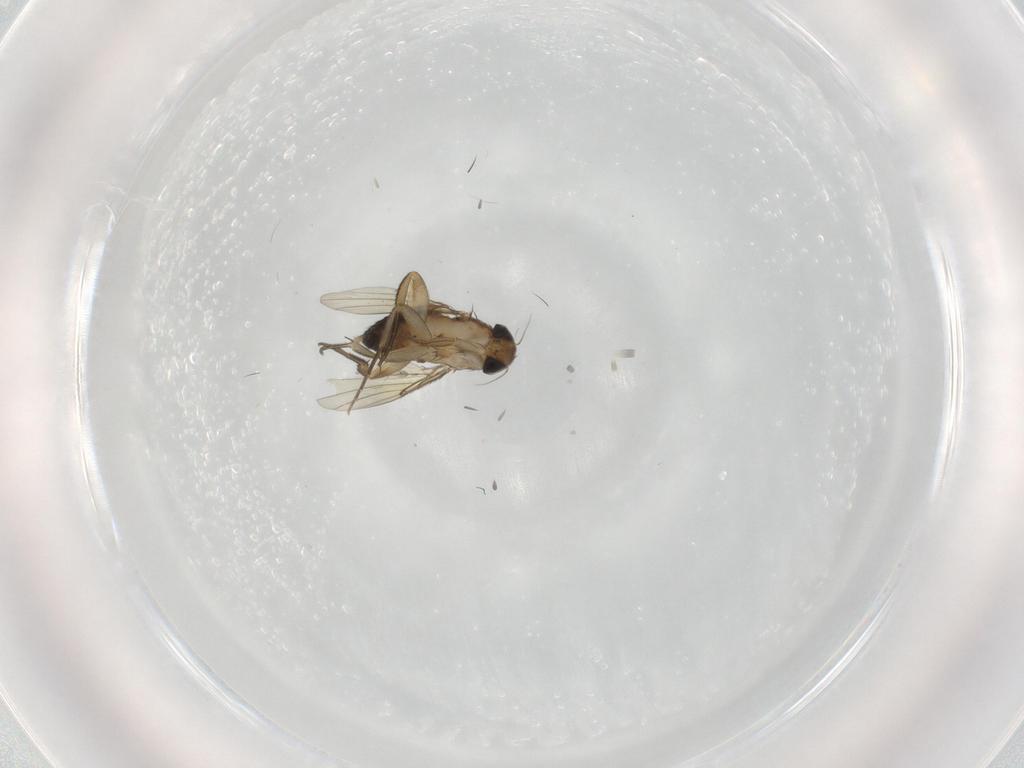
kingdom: Animalia
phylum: Arthropoda
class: Insecta
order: Diptera
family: Phoridae
